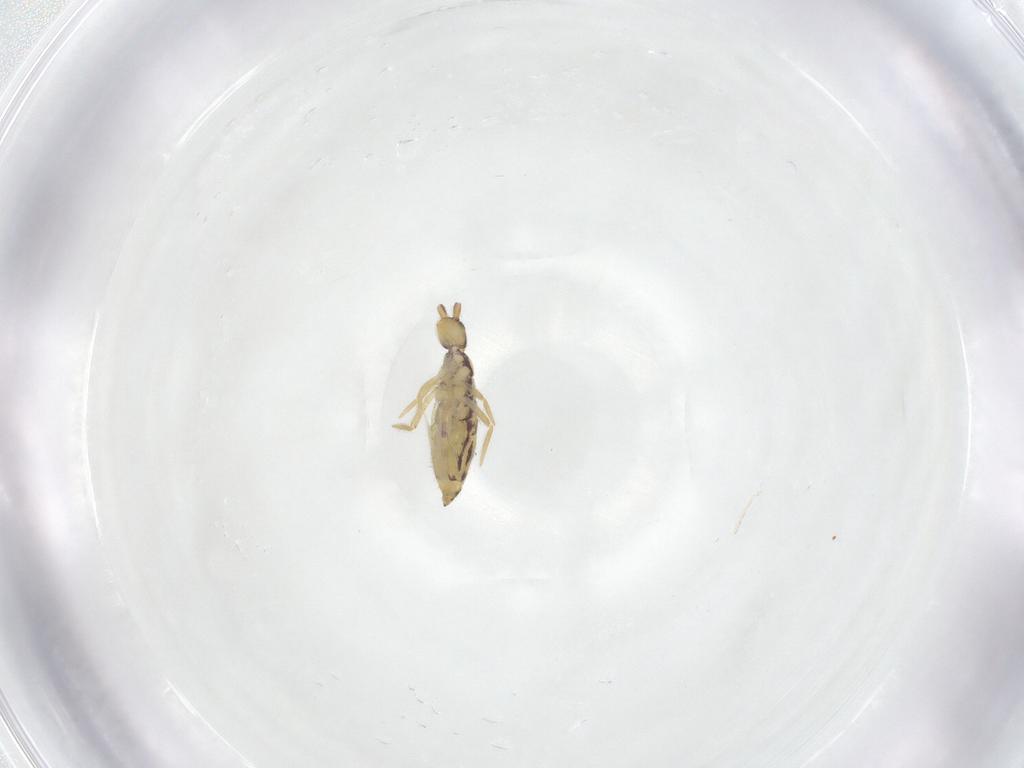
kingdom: Animalia
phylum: Arthropoda
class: Collembola
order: Entomobryomorpha
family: Entomobryidae
